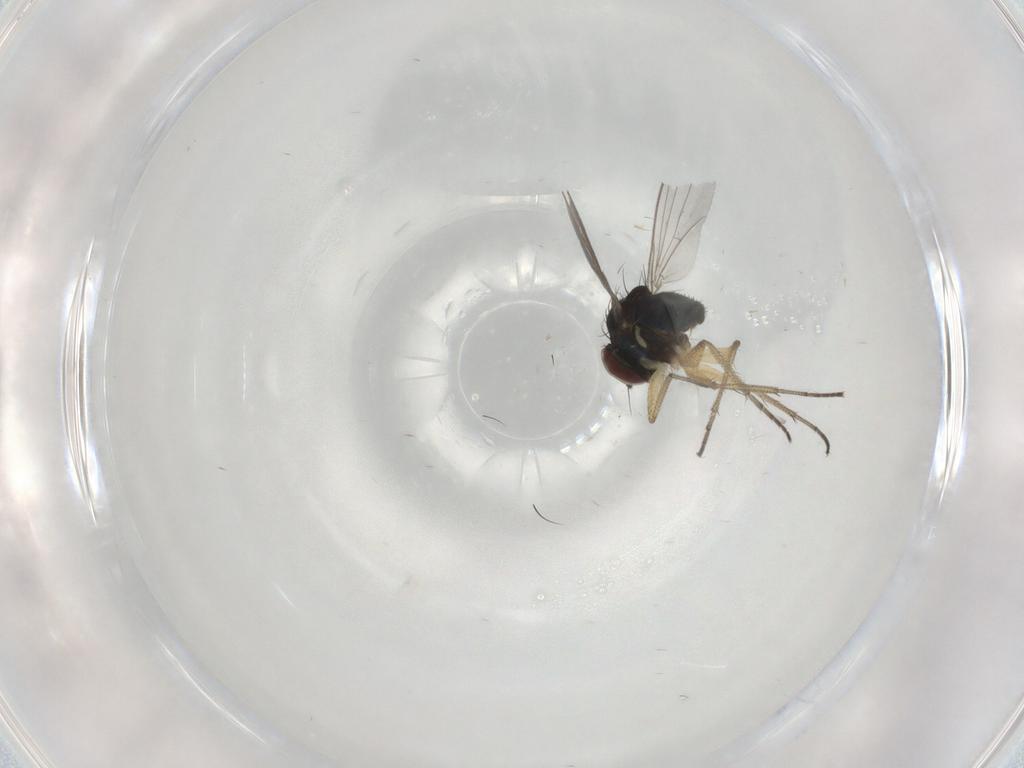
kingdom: Animalia
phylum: Arthropoda
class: Insecta
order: Diptera
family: Dolichopodidae
